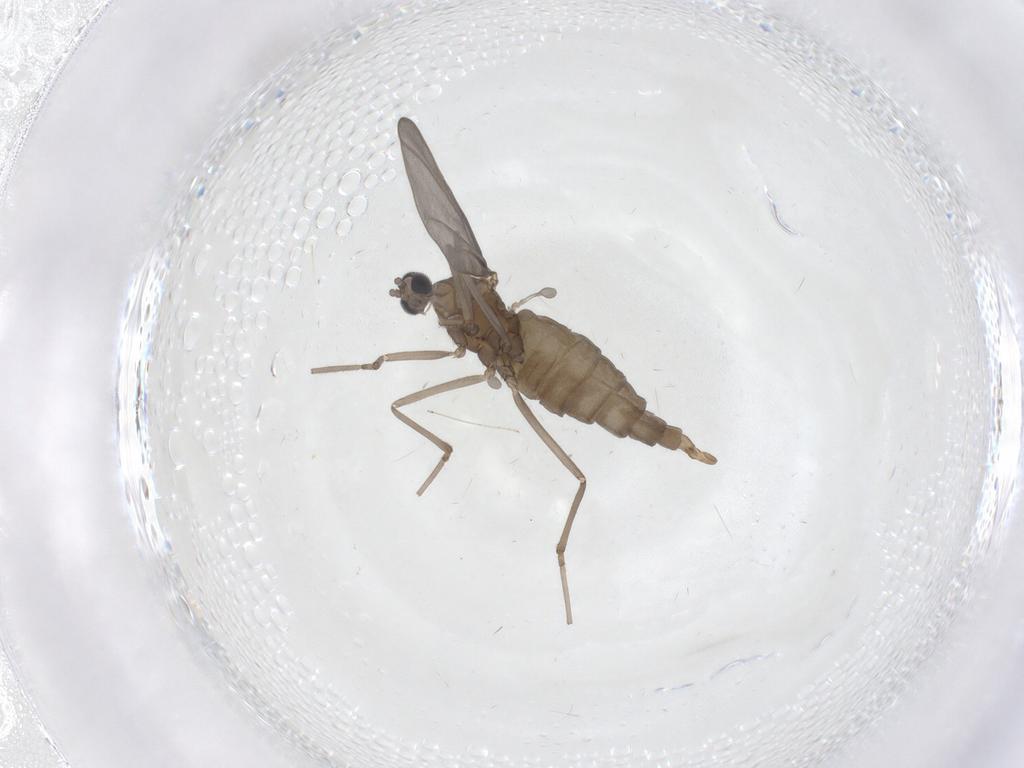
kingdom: Animalia
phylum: Arthropoda
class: Insecta
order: Diptera
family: Cecidomyiidae
